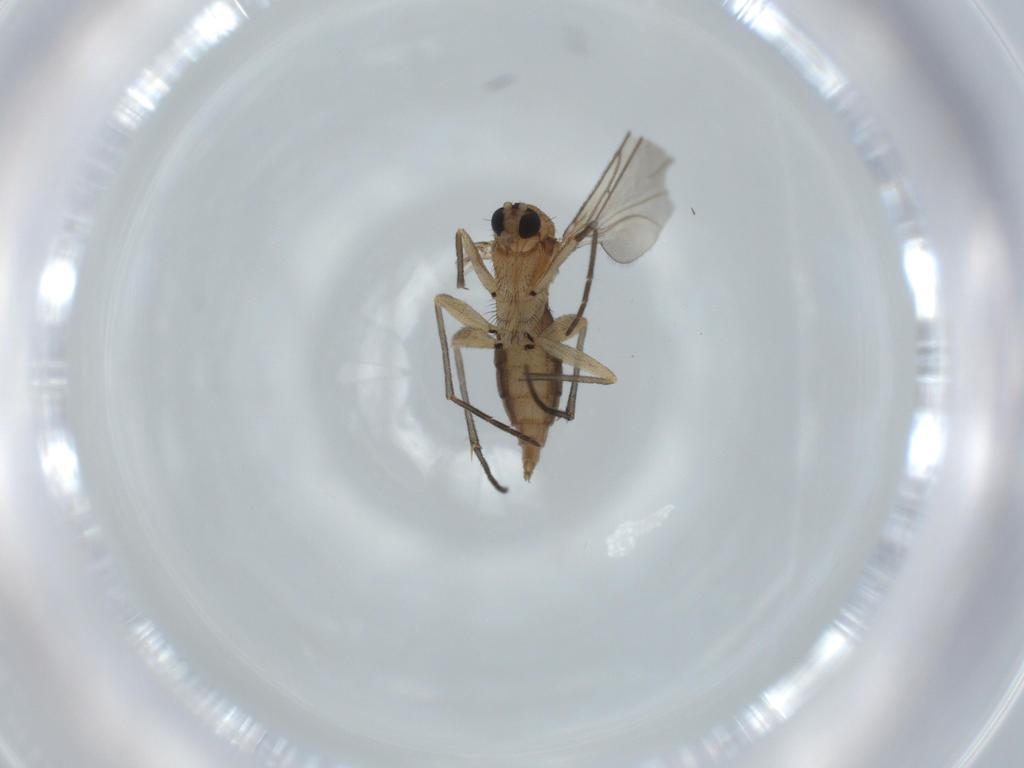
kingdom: Animalia
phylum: Arthropoda
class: Insecta
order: Diptera
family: Sciaridae
